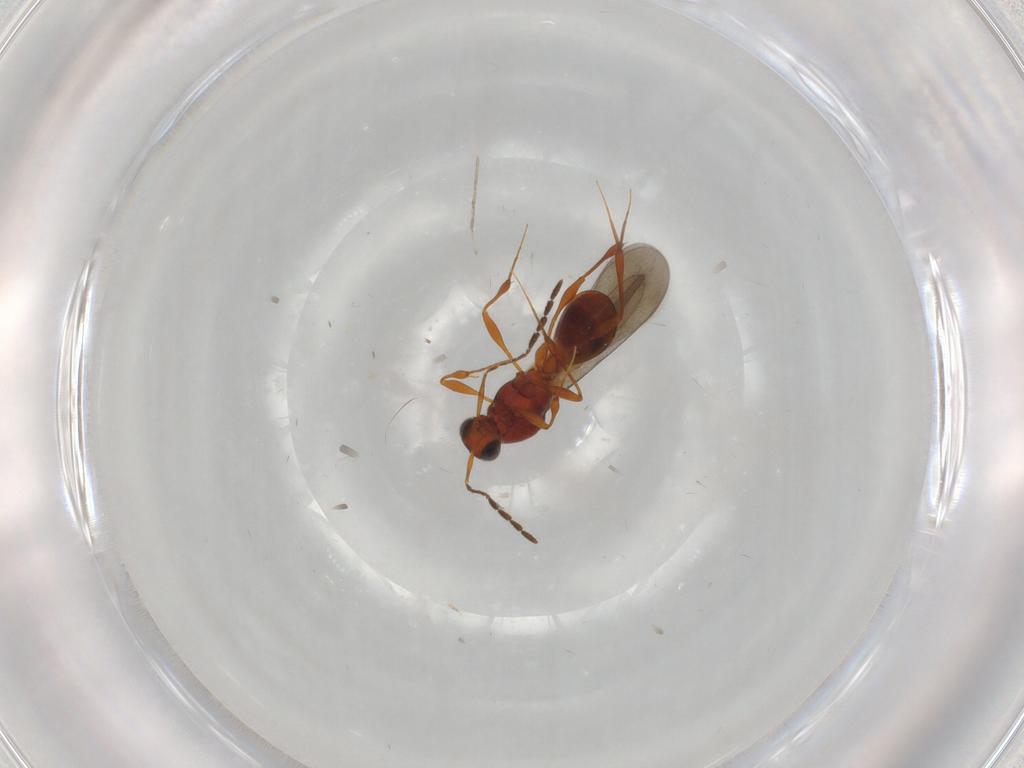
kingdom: Animalia
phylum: Arthropoda
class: Insecta
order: Hymenoptera
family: Platygastridae
